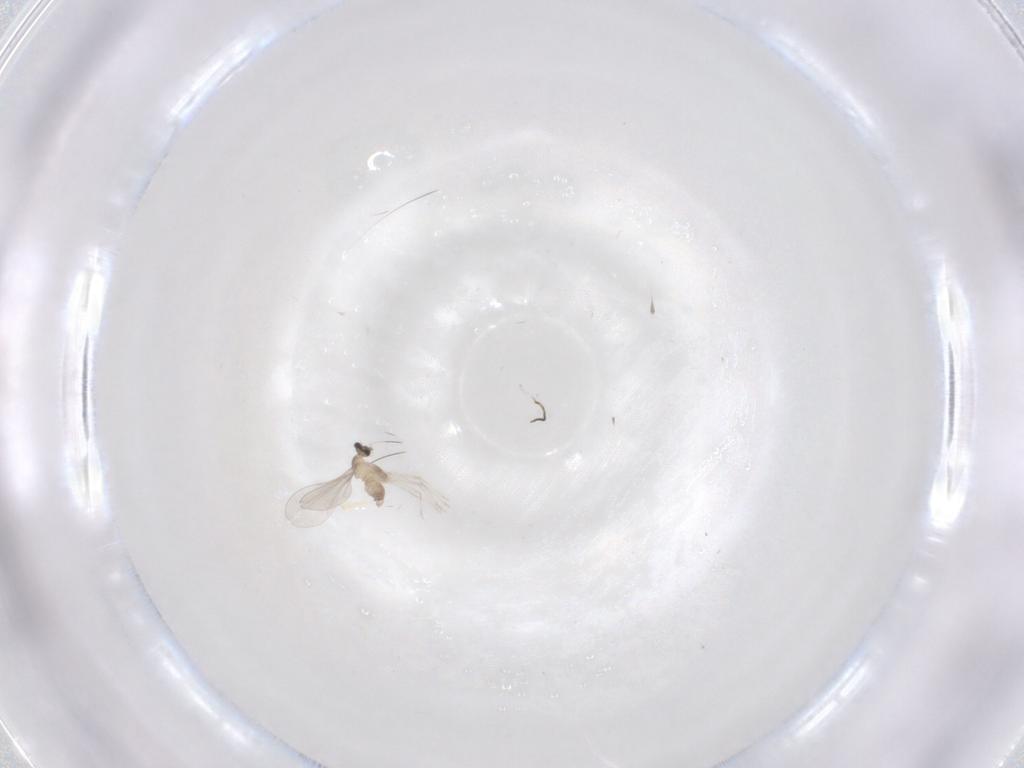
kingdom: Animalia
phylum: Arthropoda
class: Insecta
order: Diptera
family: Cecidomyiidae
